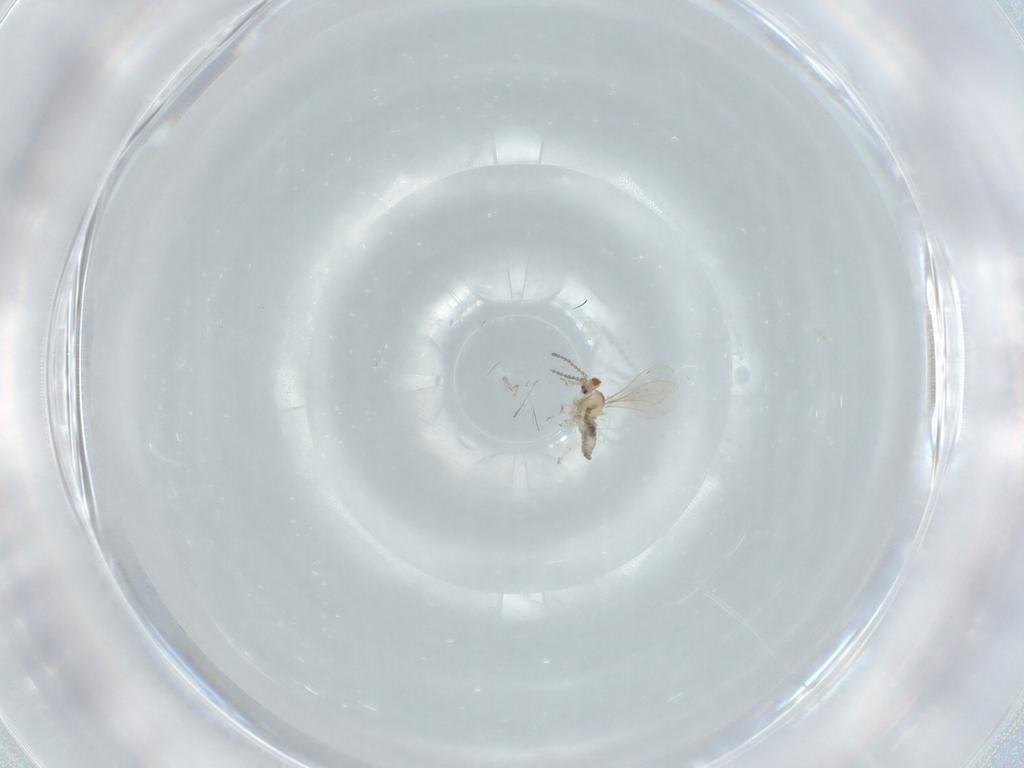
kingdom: Animalia
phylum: Arthropoda
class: Insecta
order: Diptera
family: Cecidomyiidae
